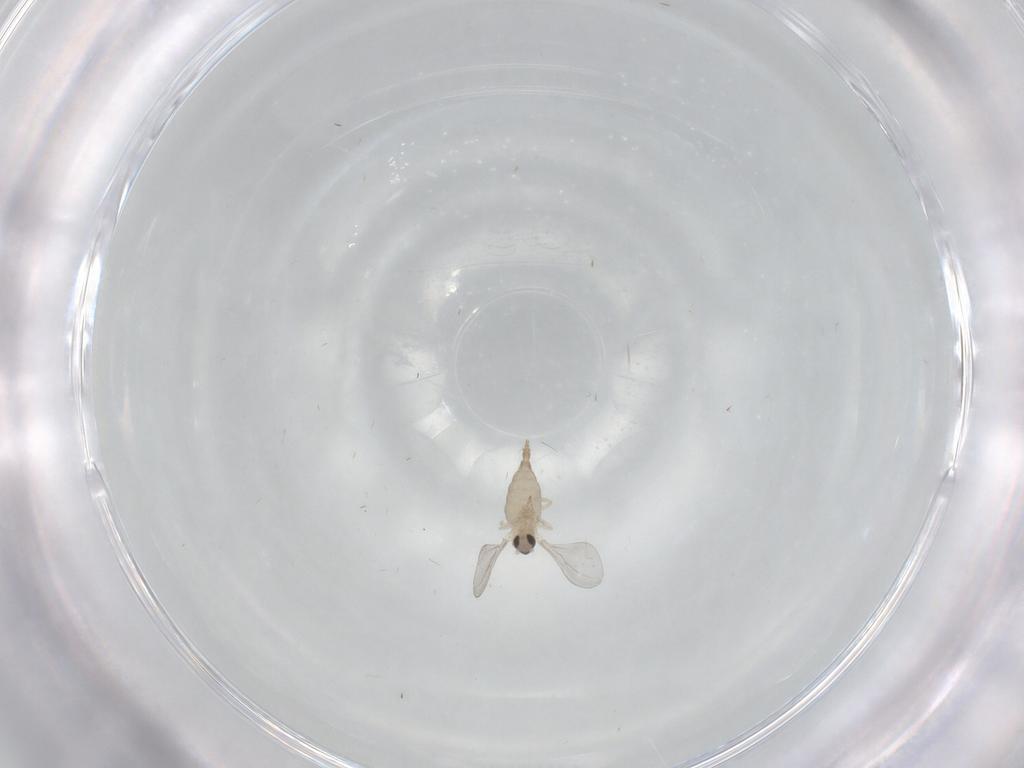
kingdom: Animalia
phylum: Arthropoda
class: Insecta
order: Diptera
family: Cecidomyiidae
